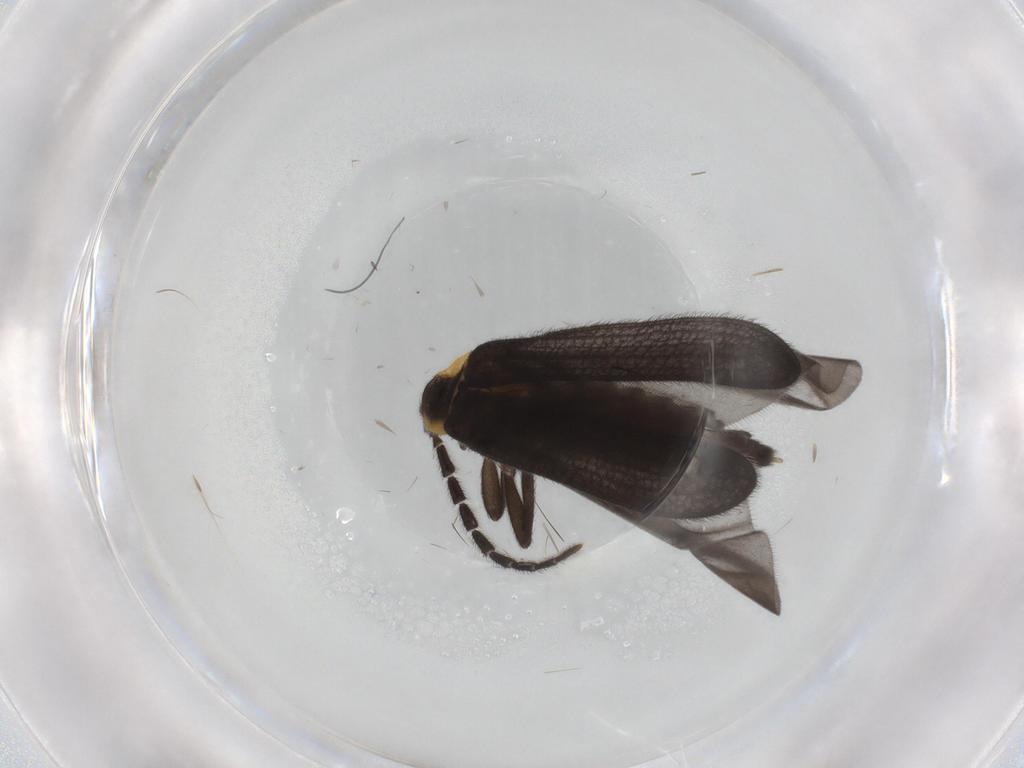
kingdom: Animalia
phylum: Arthropoda
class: Insecta
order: Coleoptera
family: Lycidae
